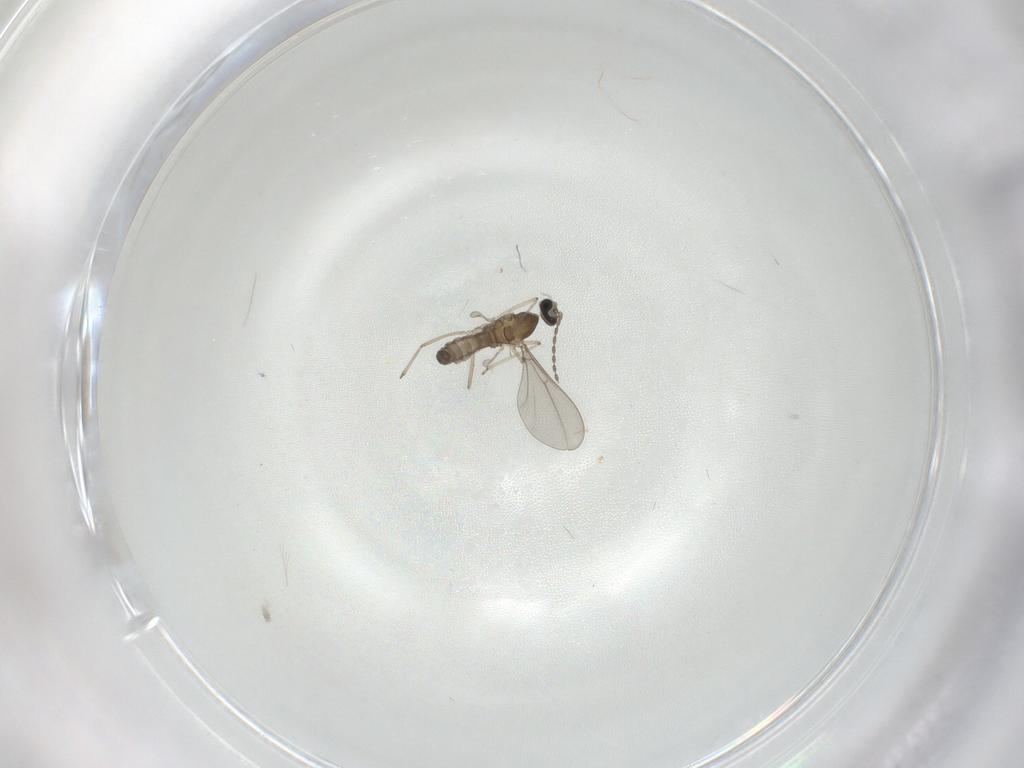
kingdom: Animalia
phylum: Arthropoda
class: Insecta
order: Diptera
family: Cecidomyiidae
